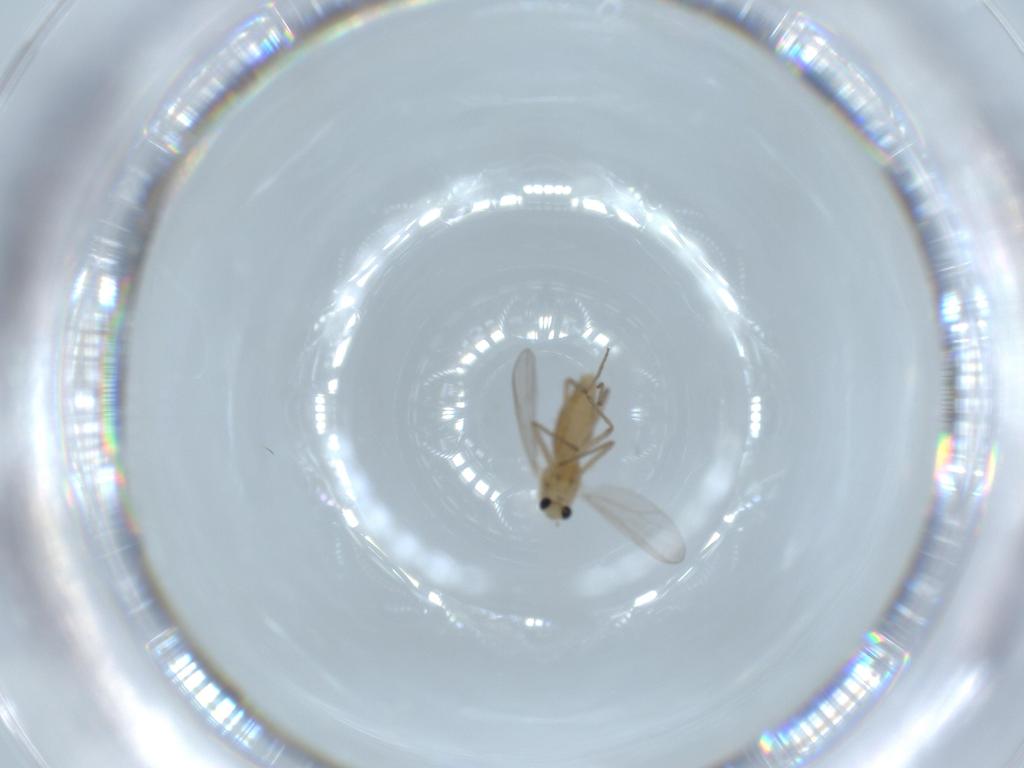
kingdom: Animalia
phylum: Arthropoda
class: Insecta
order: Diptera
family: Chironomidae
